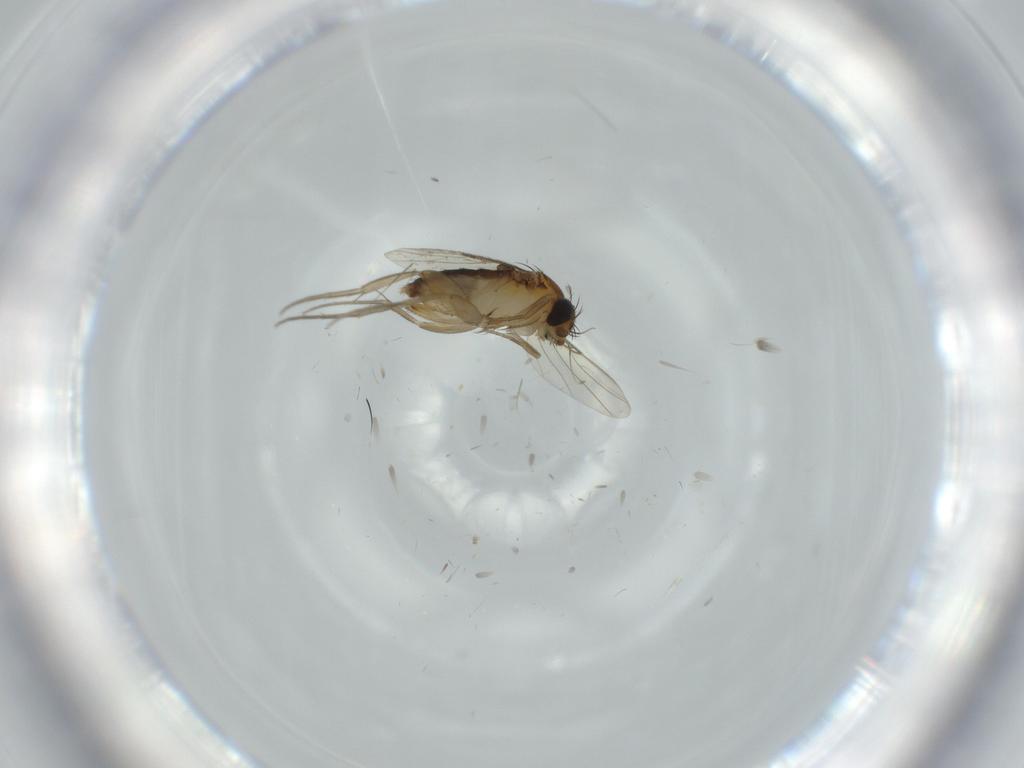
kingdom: Animalia
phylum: Arthropoda
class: Insecta
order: Diptera
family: Phoridae
